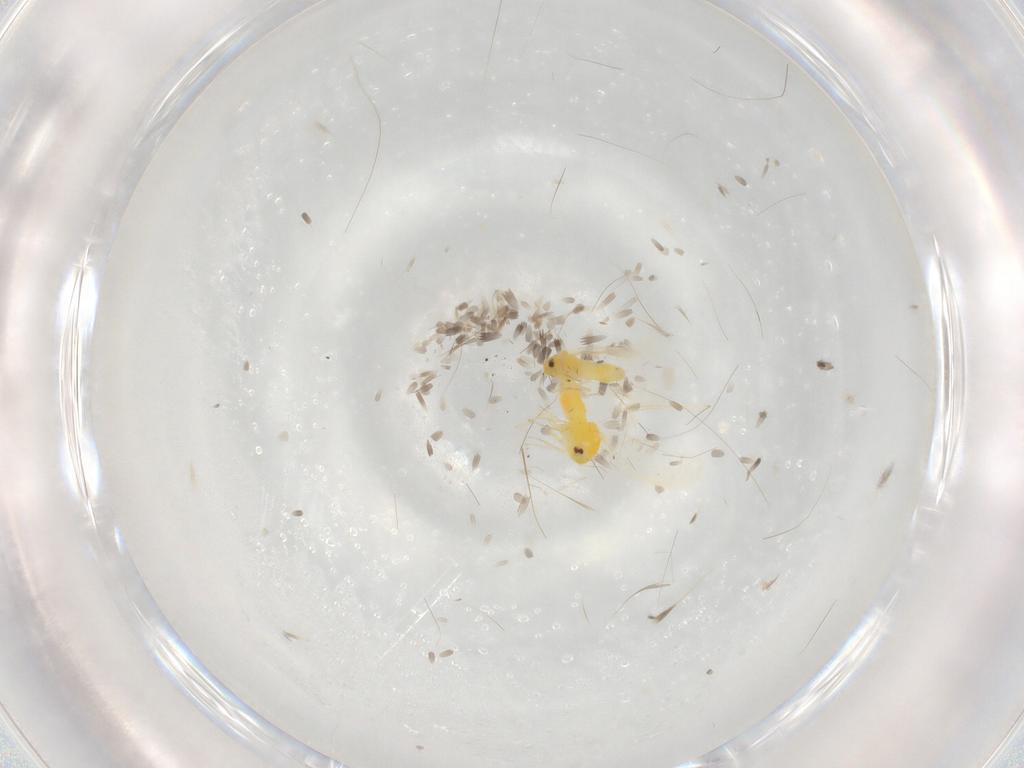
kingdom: Animalia
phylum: Arthropoda
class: Insecta
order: Hemiptera
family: Aleyrodidae
